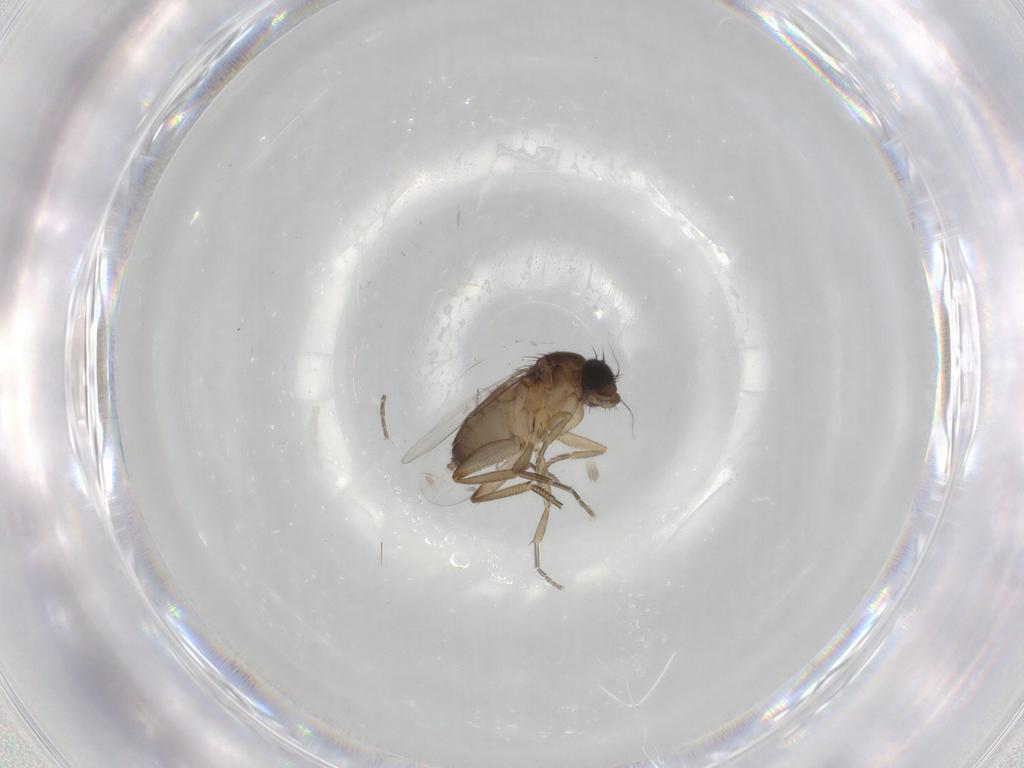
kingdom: Animalia
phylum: Arthropoda
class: Insecta
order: Diptera
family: Phoridae
